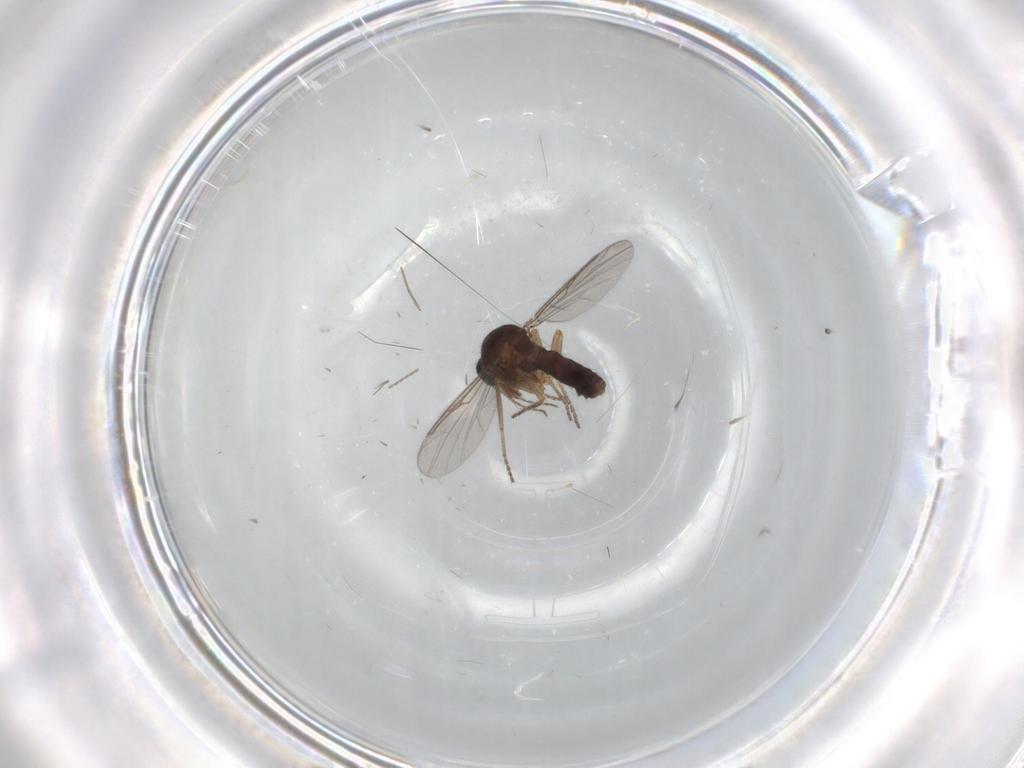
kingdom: Animalia
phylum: Arthropoda
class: Insecta
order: Diptera
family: Ceratopogonidae
